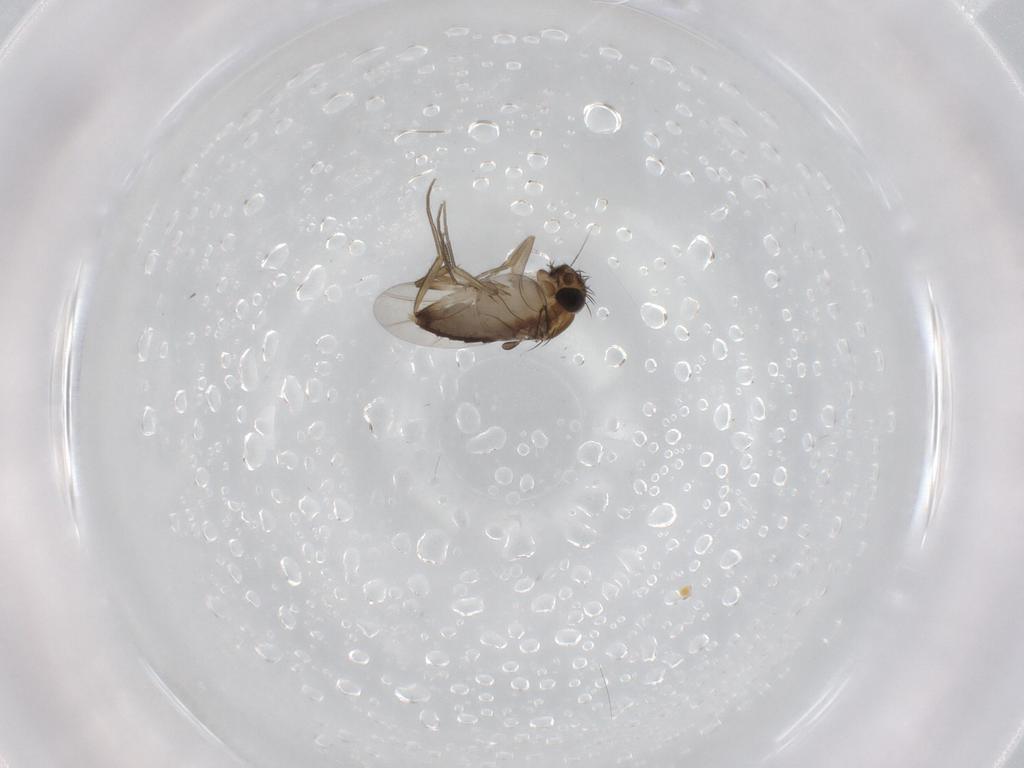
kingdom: Animalia
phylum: Arthropoda
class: Insecta
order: Diptera
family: Phoridae
